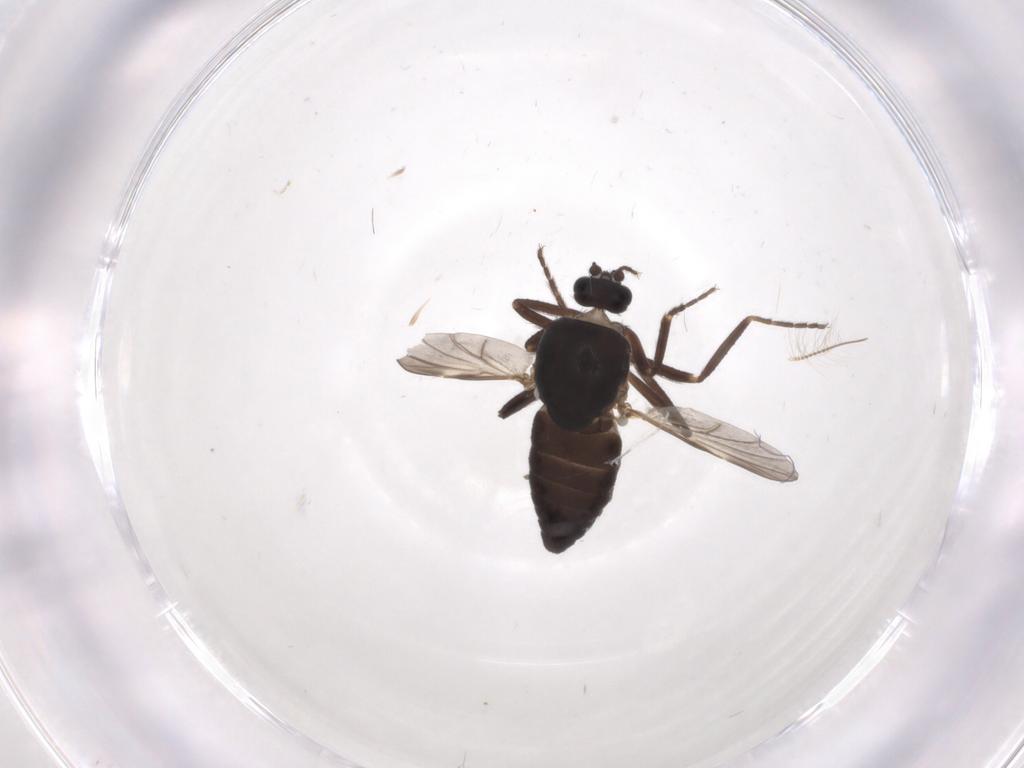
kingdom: Animalia
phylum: Arthropoda
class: Insecta
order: Diptera
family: Ceratopogonidae
